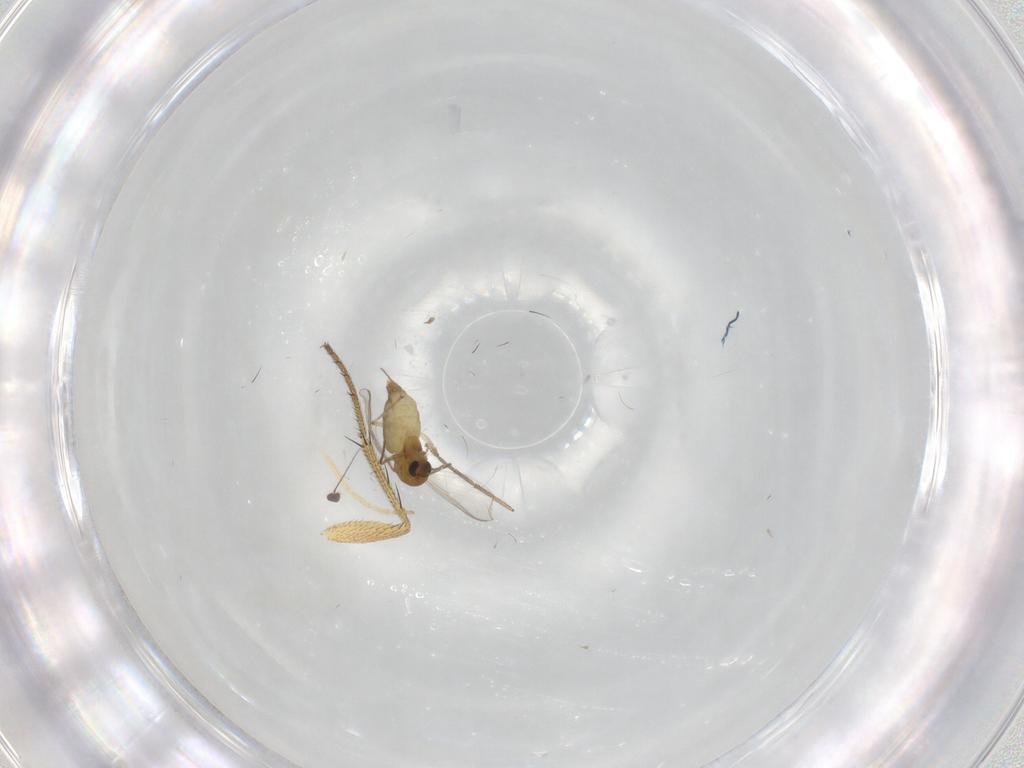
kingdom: Animalia
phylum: Arthropoda
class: Insecta
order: Diptera
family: Chironomidae
